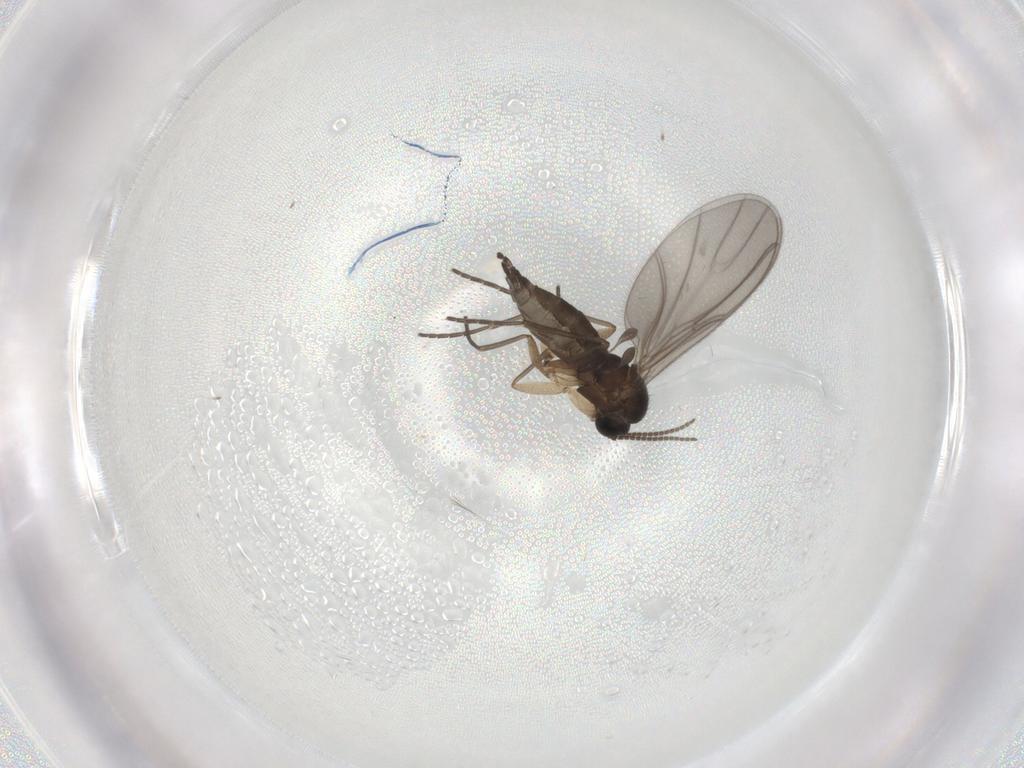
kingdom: Animalia
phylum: Arthropoda
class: Insecta
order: Diptera
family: Sciaridae
